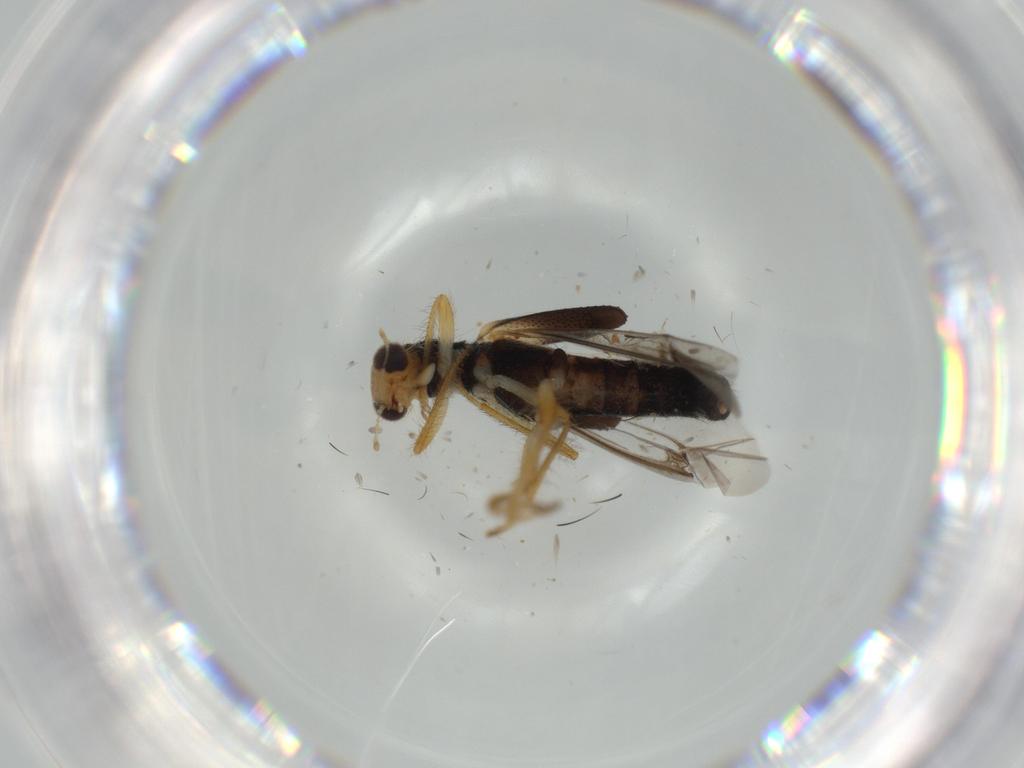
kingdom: Animalia
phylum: Arthropoda
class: Insecta
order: Coleoptera
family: Cleridae
